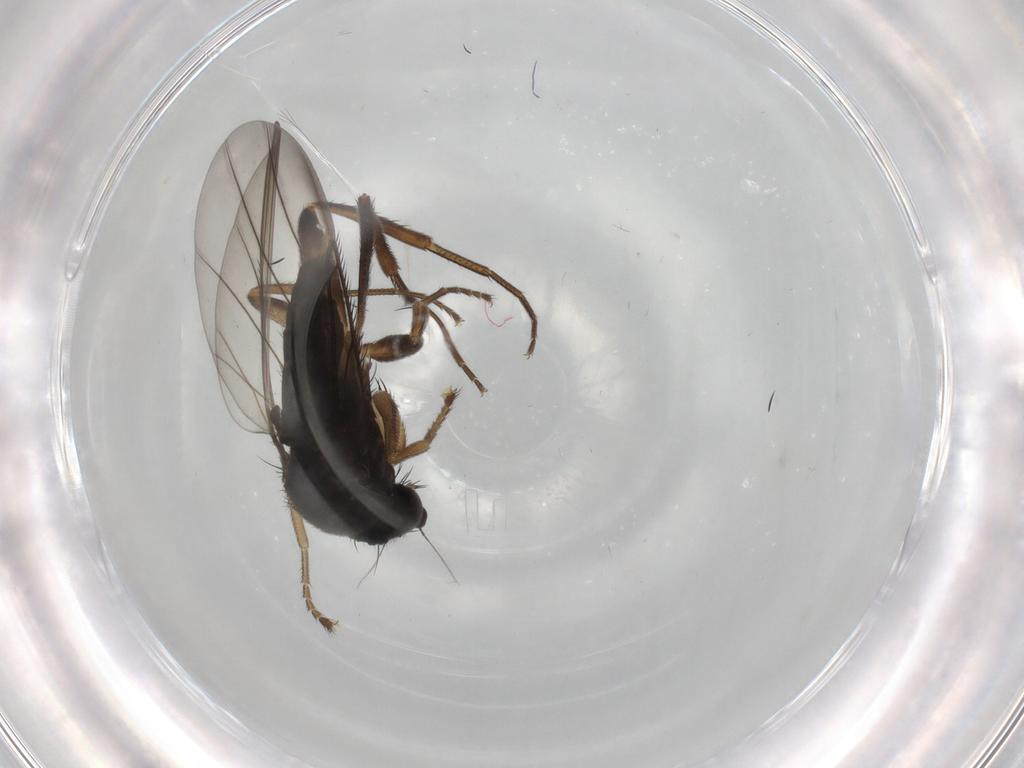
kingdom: Animalia
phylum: Arthropoda
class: Insecta
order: Diptera
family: Chironomidae
